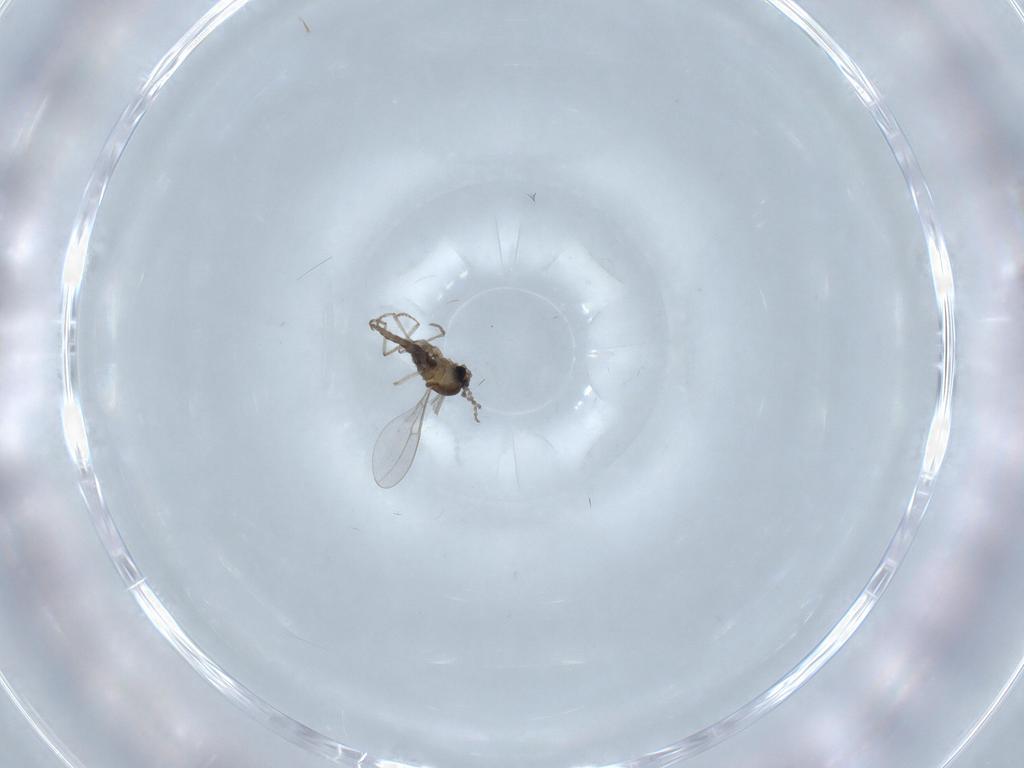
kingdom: Animalia
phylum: Arthropoda
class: Insecta
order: Diptera
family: Cecidomyiidae
